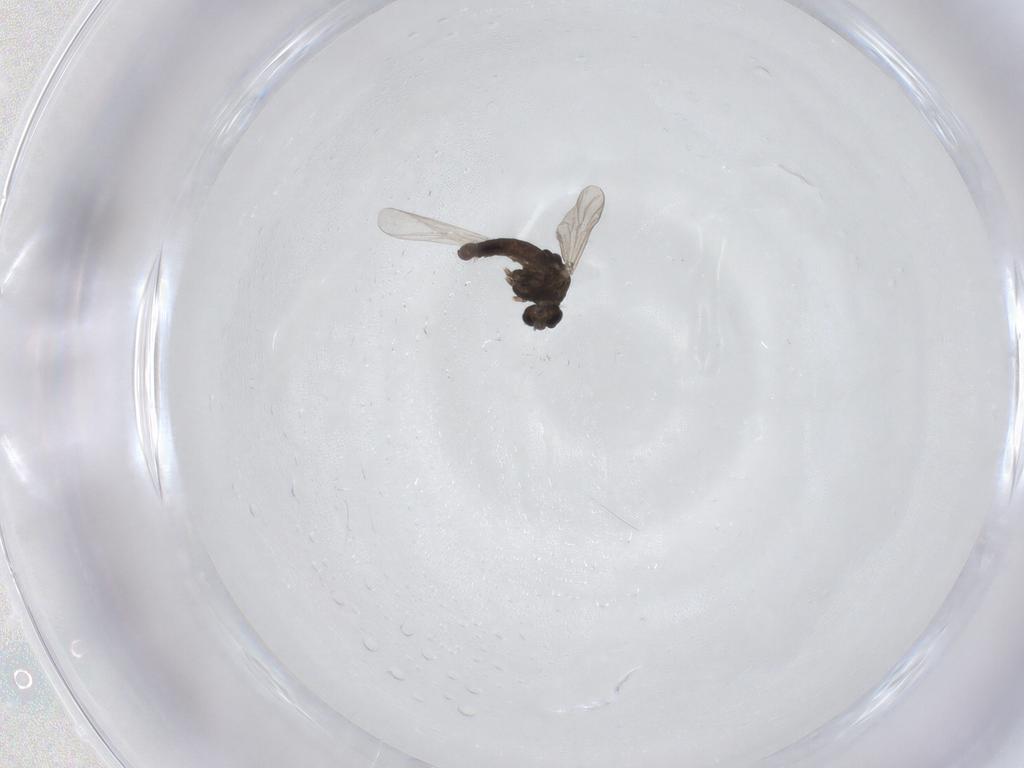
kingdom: Animalia
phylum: Arthropoda
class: Insecta
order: Diptera
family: Chironomidae
